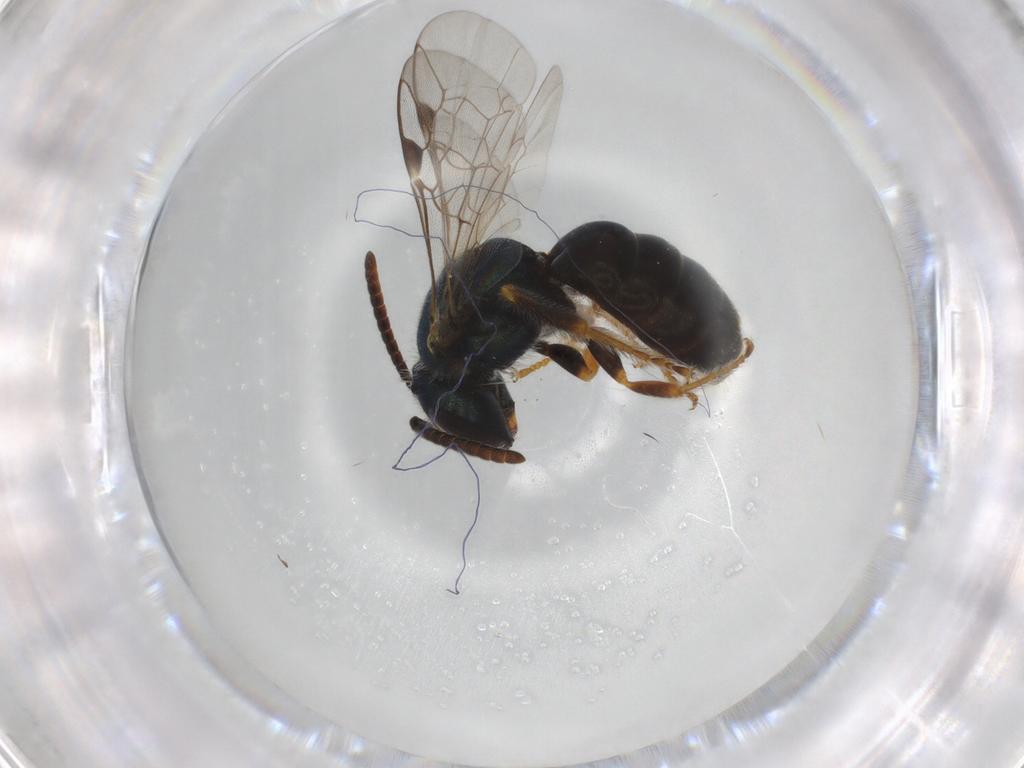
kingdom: Animalia
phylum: Arthropoda
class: Insecta
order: Hymenoptera
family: Halictidae
